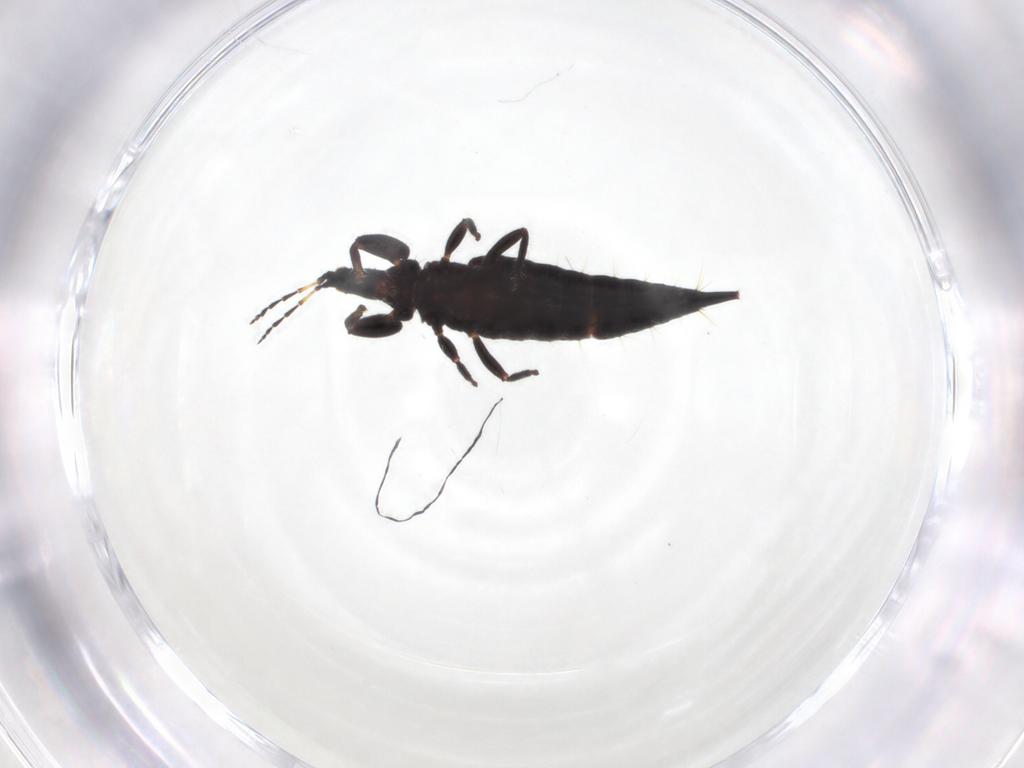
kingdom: Animalia
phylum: Arthropoda
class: Insecta
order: Thysanoptera
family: Phlaeothripidae
